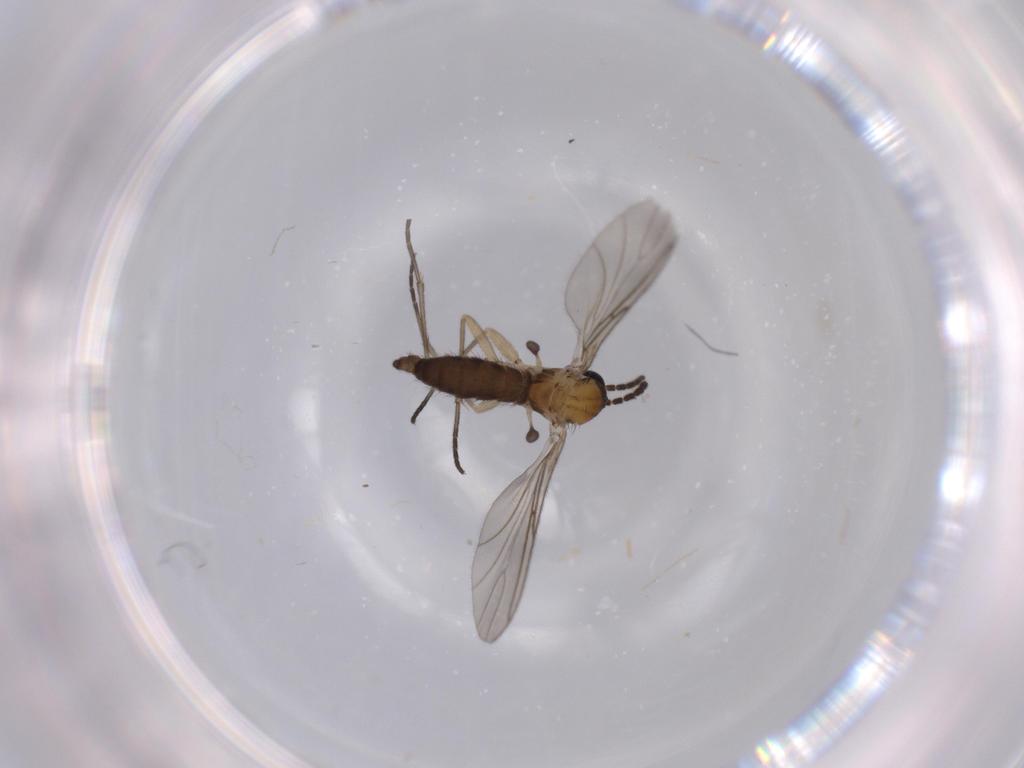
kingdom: Animalia
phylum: Arthropoda
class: Insecta
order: Diptera
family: Sciaridae
